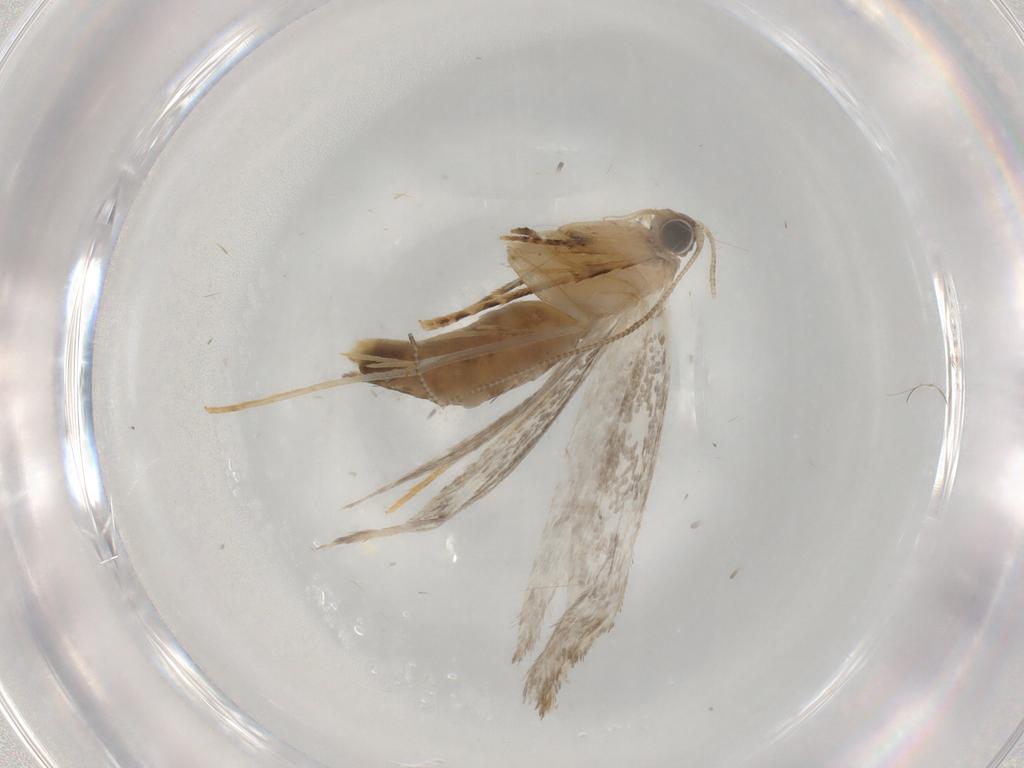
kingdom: Animalia
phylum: Arthropoda
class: Insecta
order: Lepidoptera
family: Tineidae
